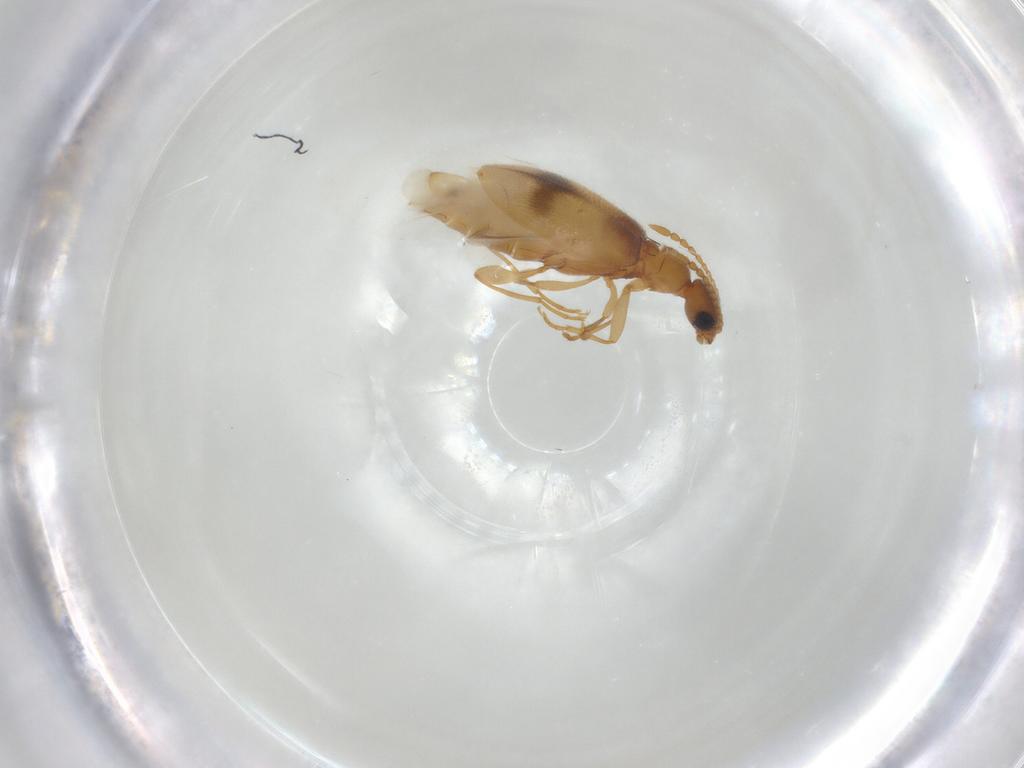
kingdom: Animalia
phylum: Arthropoda
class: Insecta
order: Coleoptera
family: Anthicidae
